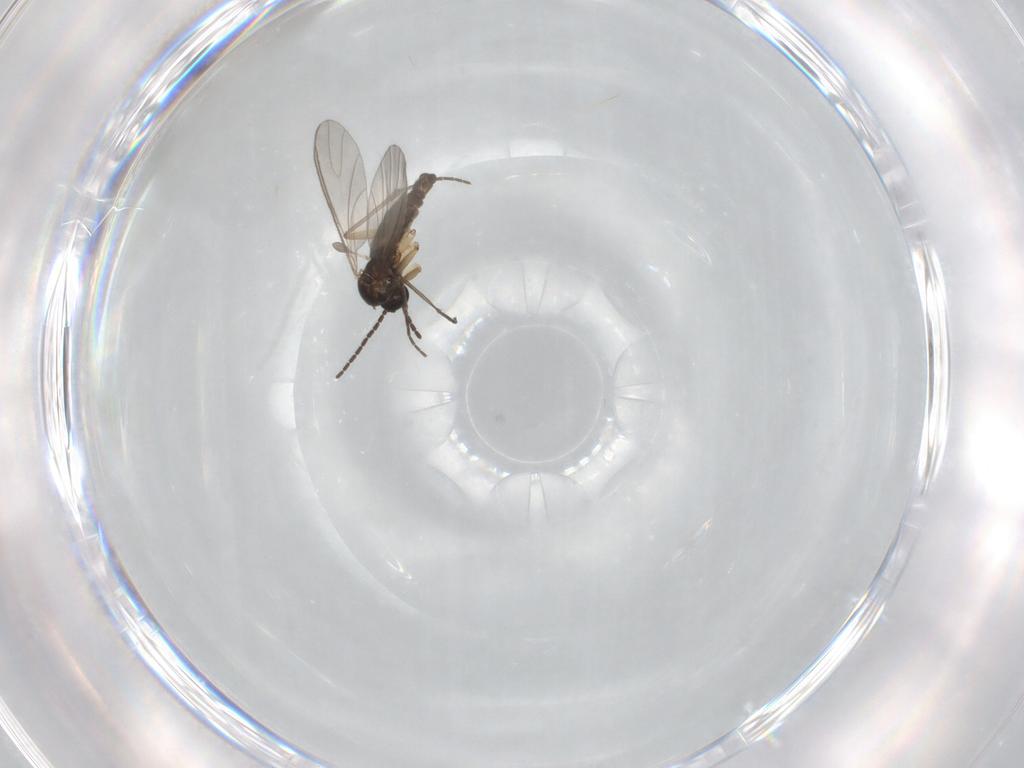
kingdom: Animalia
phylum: Arthropoda
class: Insecta
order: Diptera
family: Sciaridae
